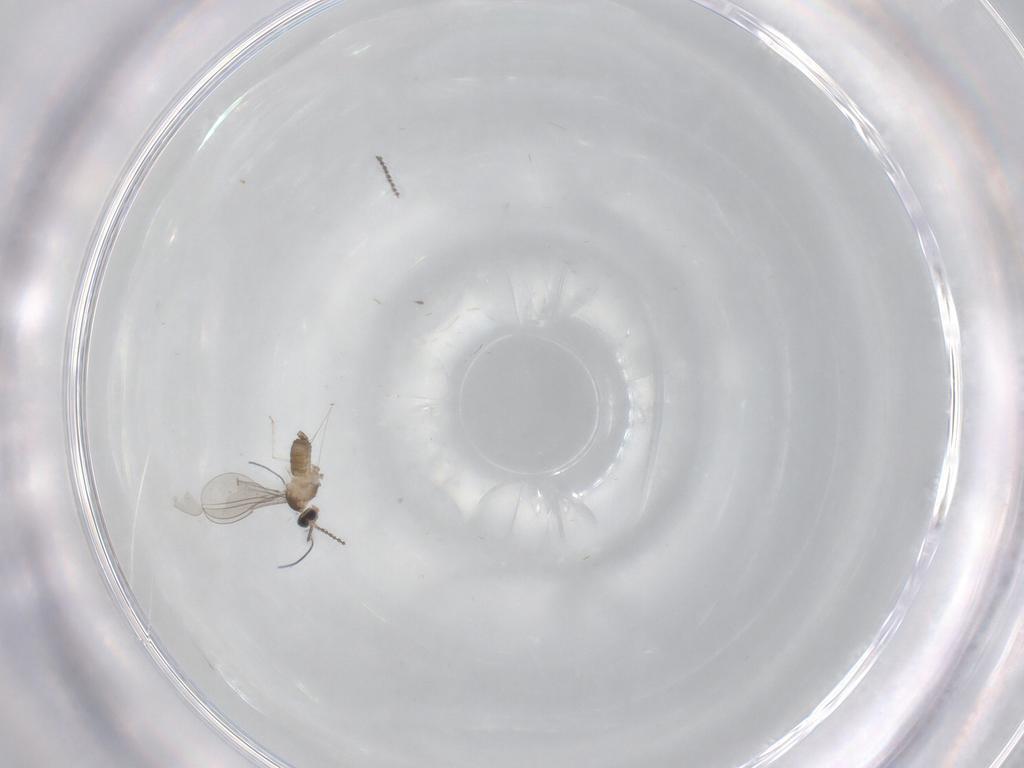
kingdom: Animalia
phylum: Arthropoda
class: Insecta
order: Diptera
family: Cecidomyiidae
